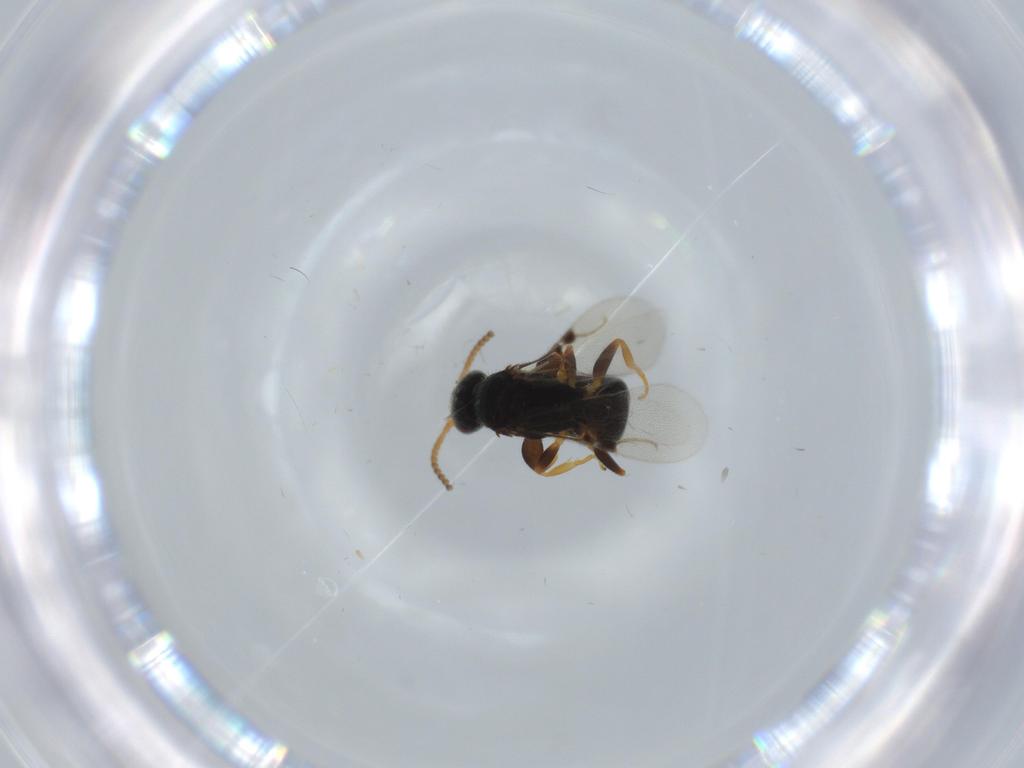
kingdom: Animalia
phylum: Arthropoda
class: Insecta
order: Hymenoptera
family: Bethylidae
